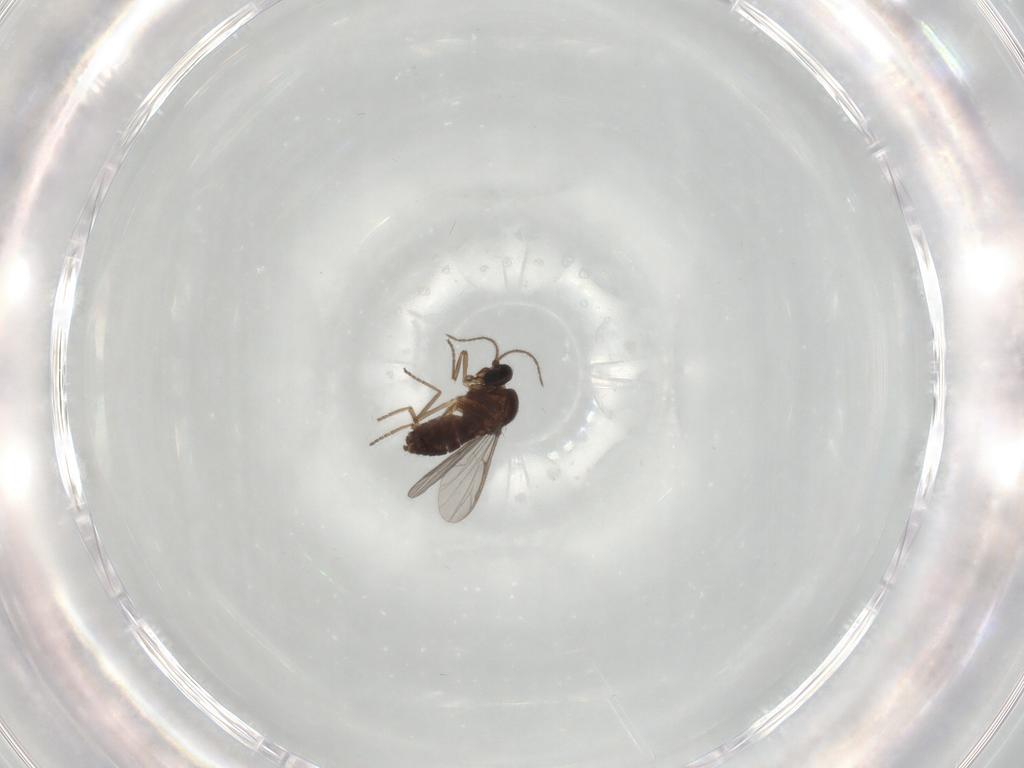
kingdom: Animalia
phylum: Arthropoda
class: Insecta
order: Diptera
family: Ceratopogonidae
